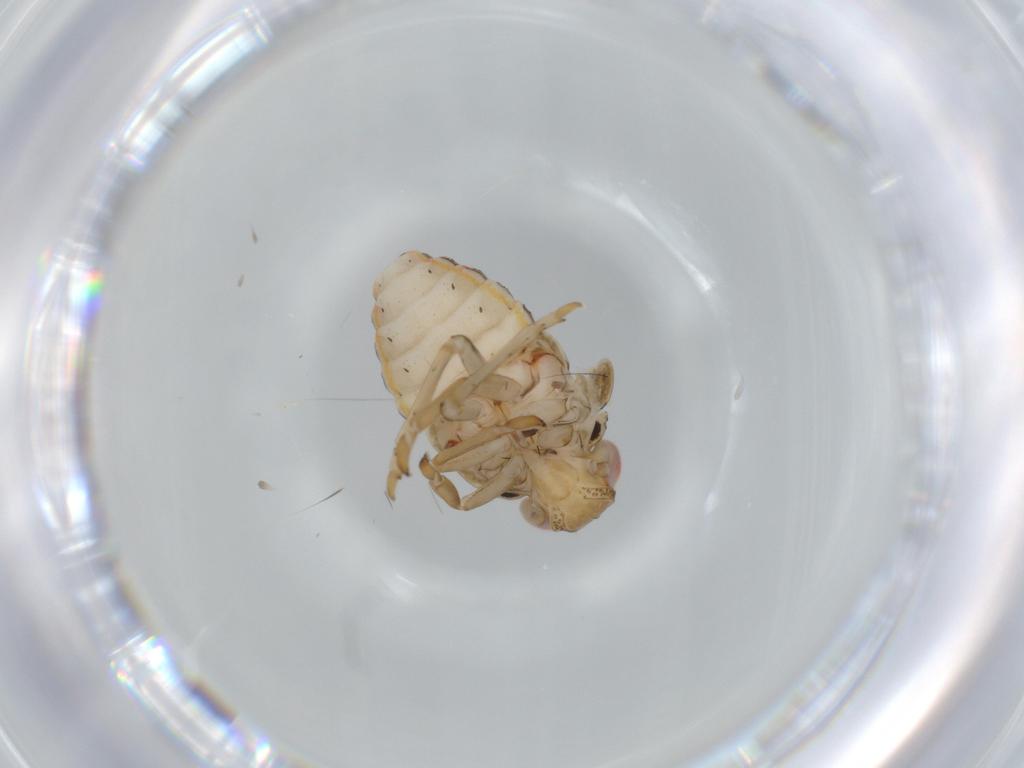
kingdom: Animalia
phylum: Arthropoda
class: Insecta
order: Hemiptera
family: Issidae
